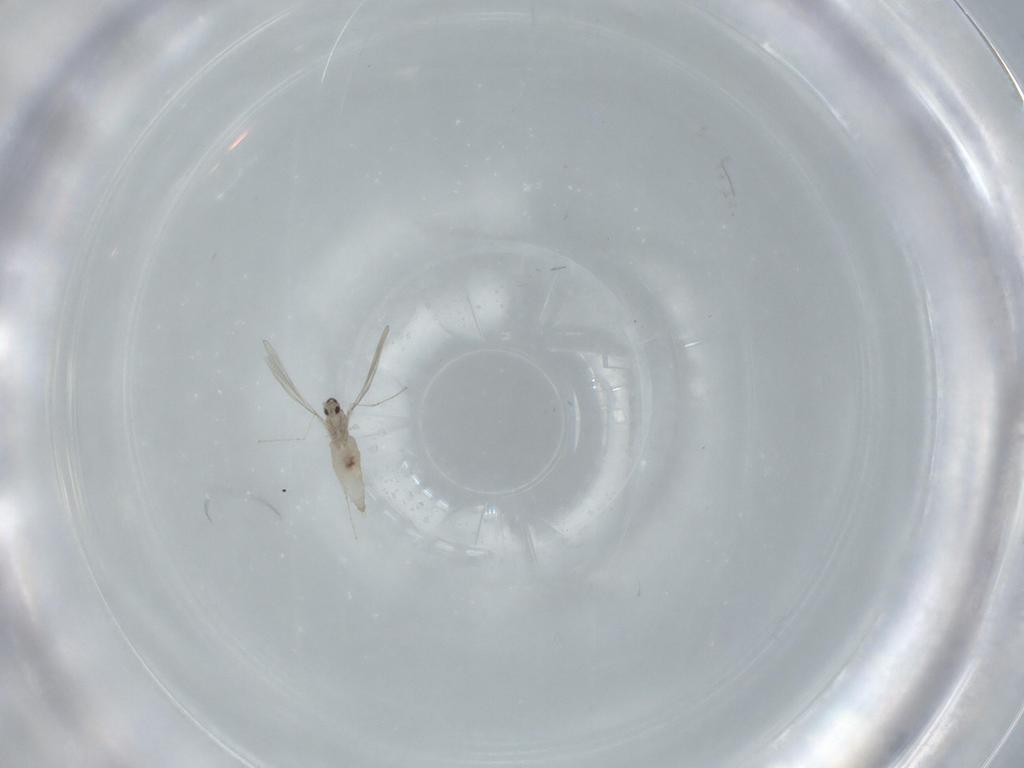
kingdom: Animalia
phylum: Arthropoda
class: Insecta
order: Diptera
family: Cecidomyiidae
